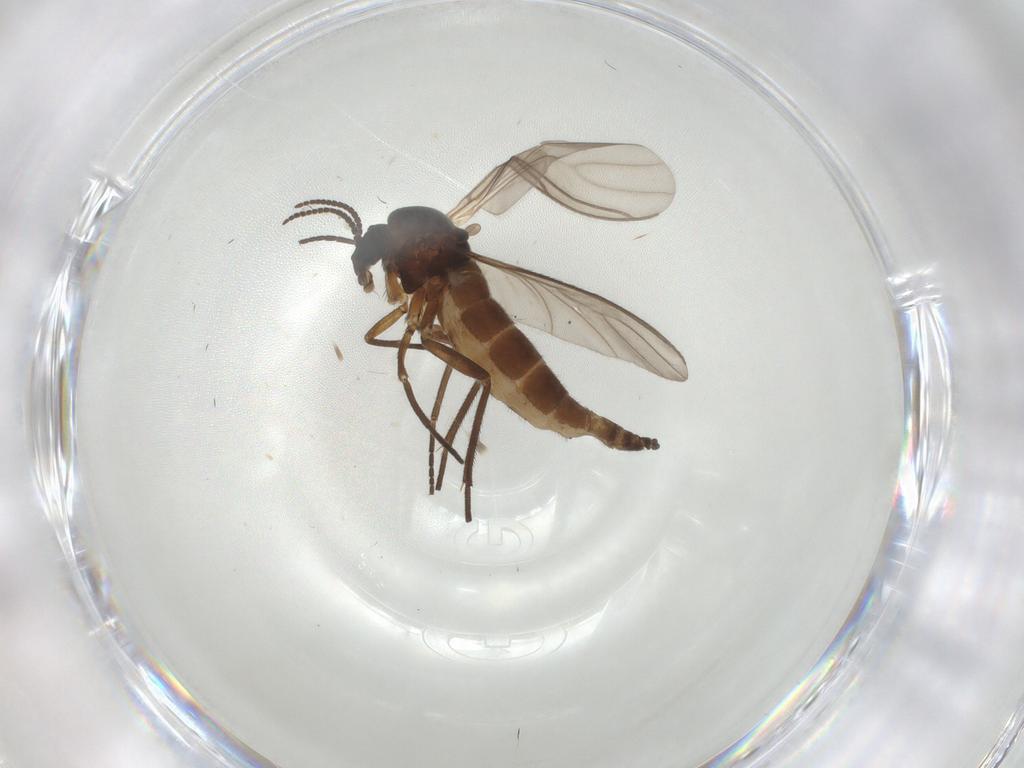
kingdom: Animalia
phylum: Arthropoda
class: Insecta
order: Diptera
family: Sciaridae
